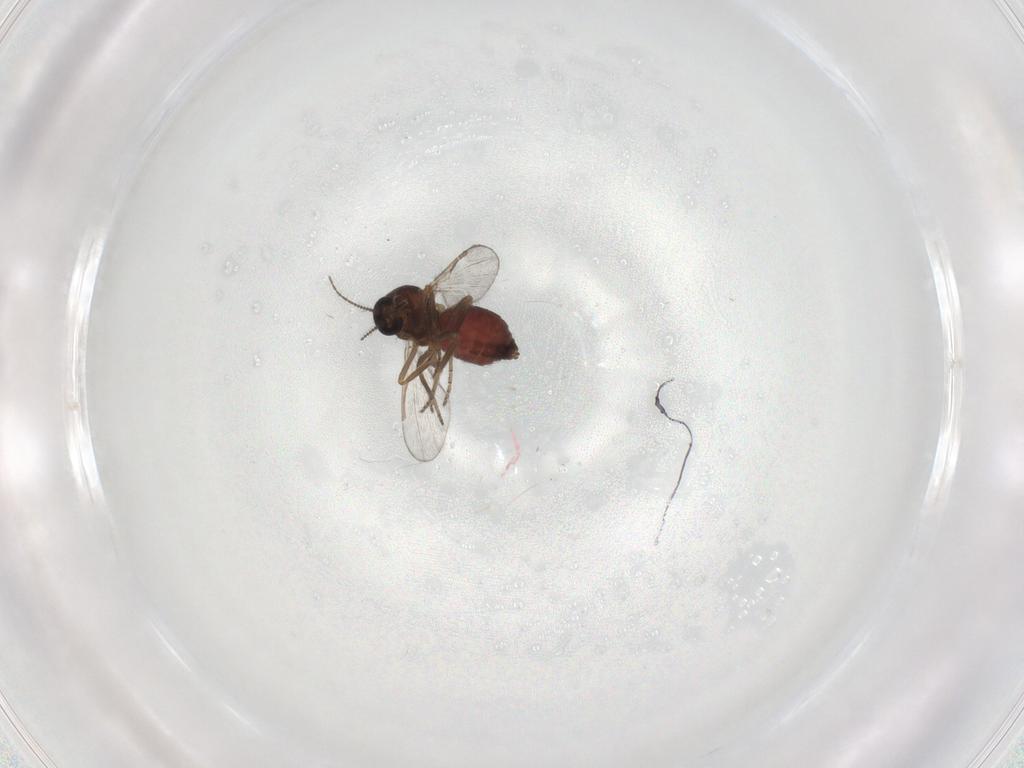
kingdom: Animalia
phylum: Arthropoda
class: Insecta
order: Diptera
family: Ceratopogonidae
